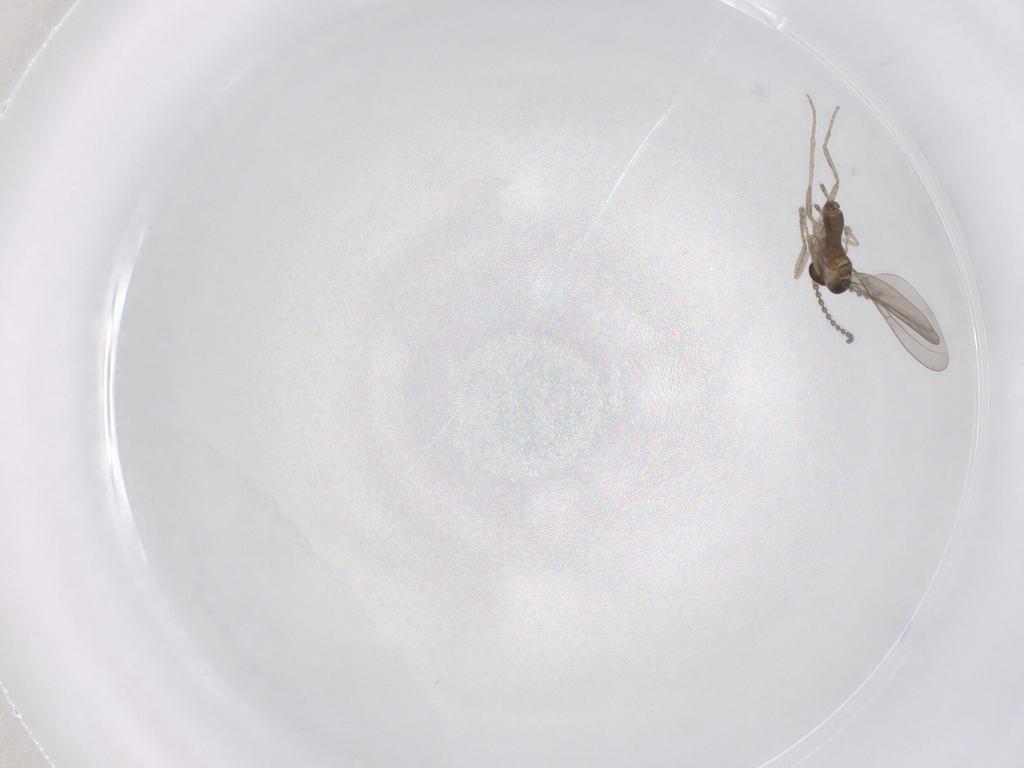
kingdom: Animalia
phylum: Arthropoda
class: Insecta
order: Diptera
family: Cecidomyiidae
